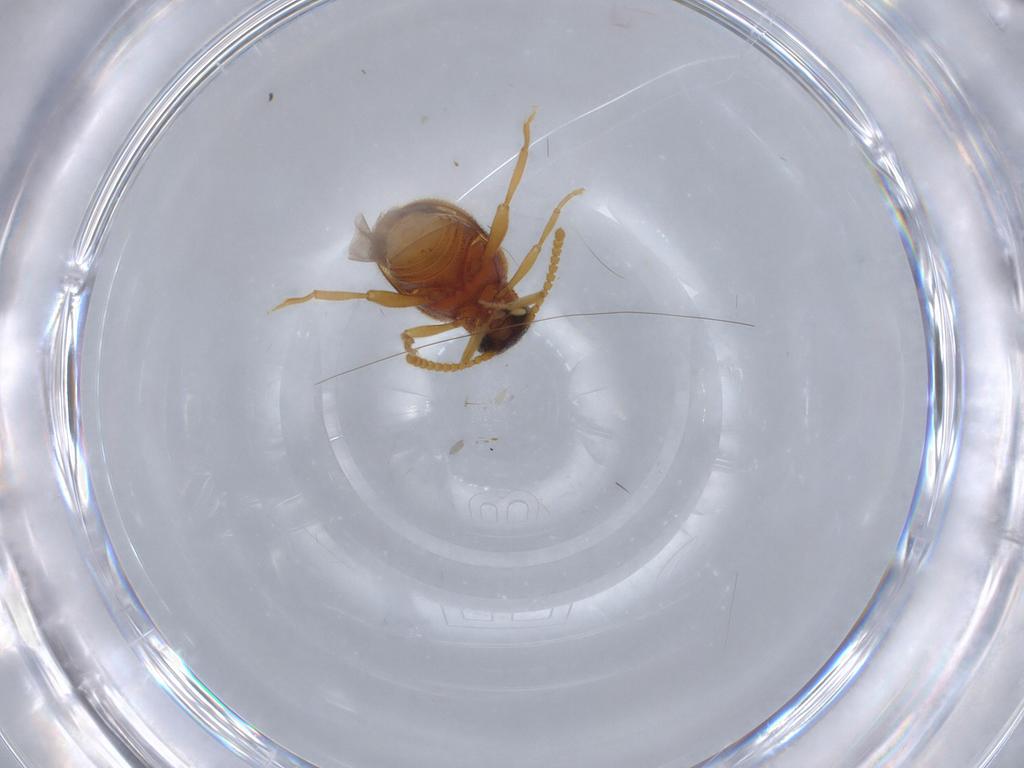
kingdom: Animalia
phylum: Arthropoda
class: Insecta
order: Coleoptera
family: Aderidae
